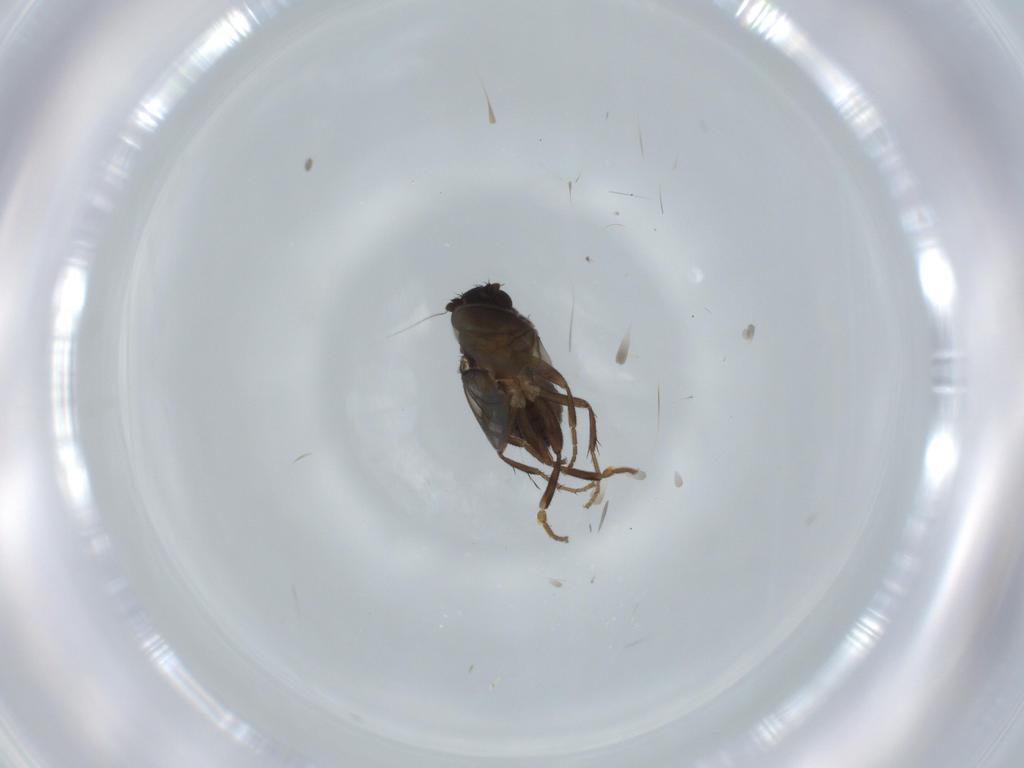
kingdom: Animalia
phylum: Arthropoda
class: Insecta
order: Diptera
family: Sphaeroceridae
